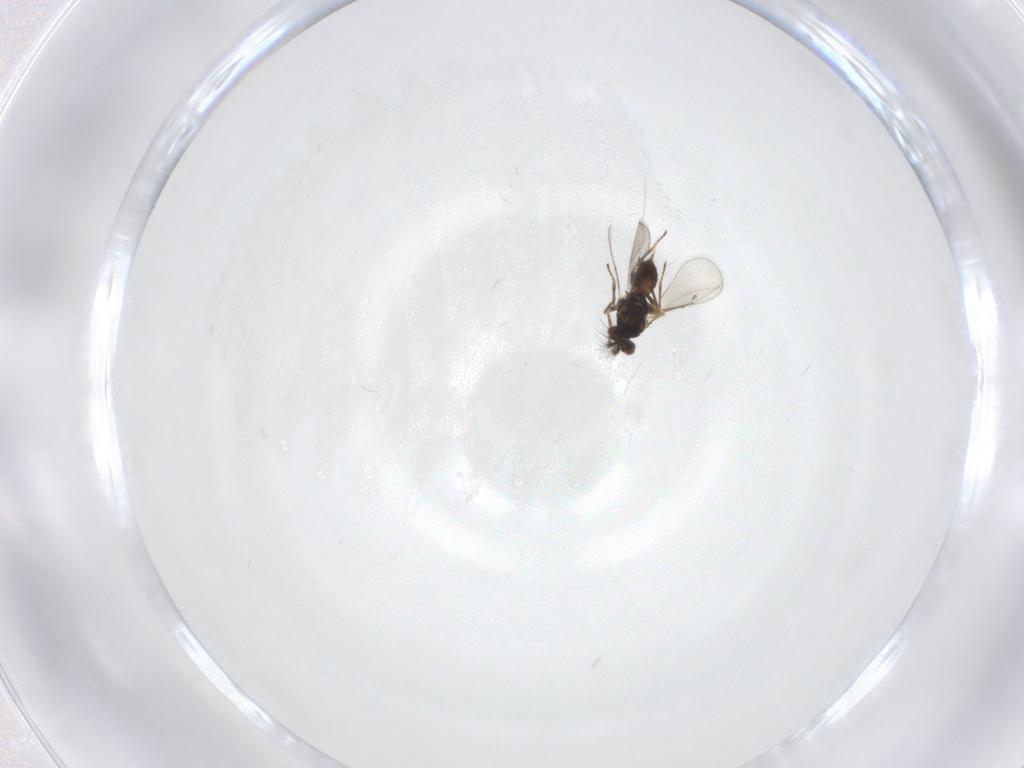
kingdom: Animalia
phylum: Arthropoda
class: Insecta
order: Hymenoptera
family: Eulophidae
